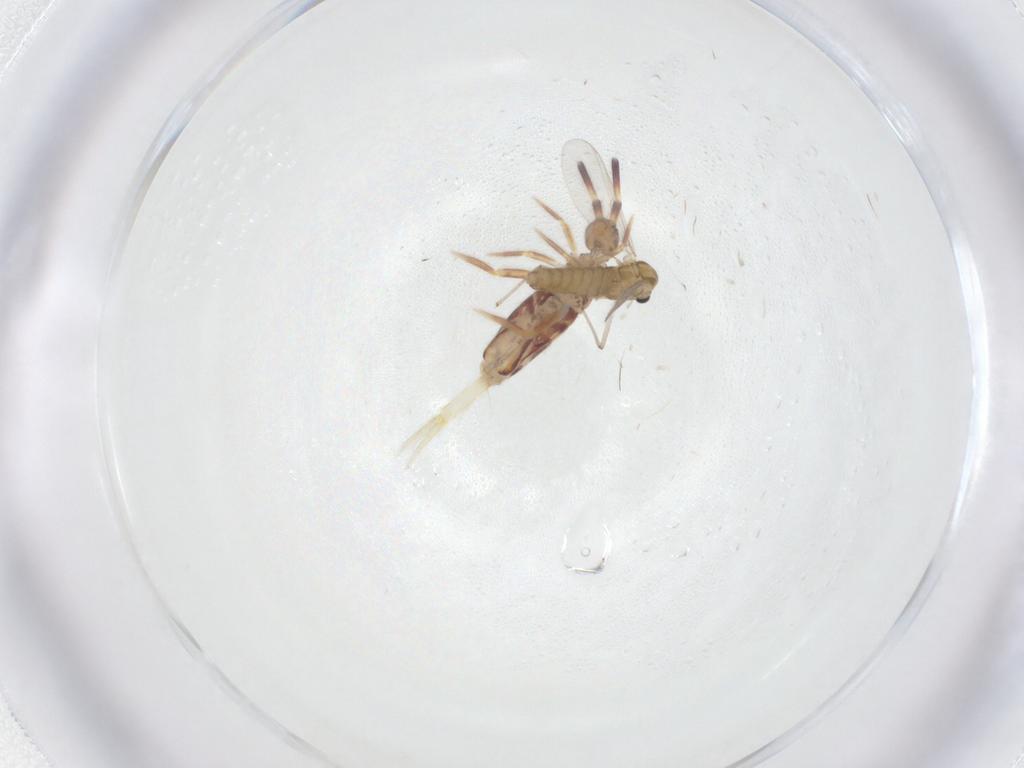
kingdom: Animalia
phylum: Arthropoda
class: Insecta
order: Diptera
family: Chironomidae
